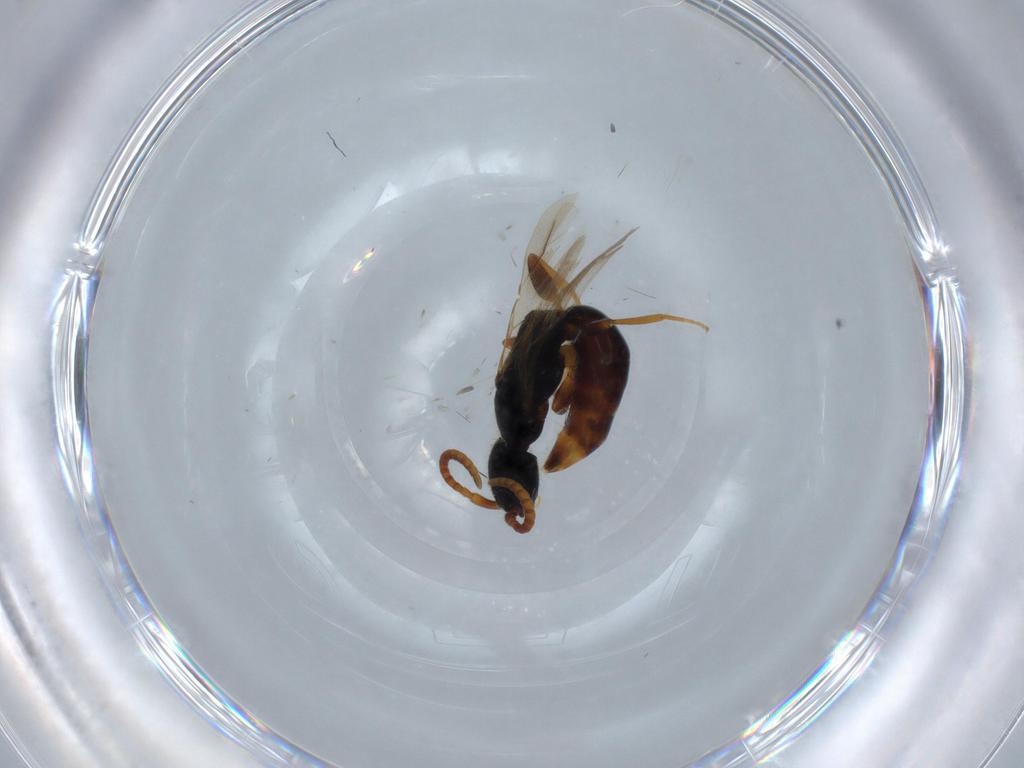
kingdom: Animalia
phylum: Arthropoda
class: Insecta
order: Hymenoptera
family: Bethylidae
